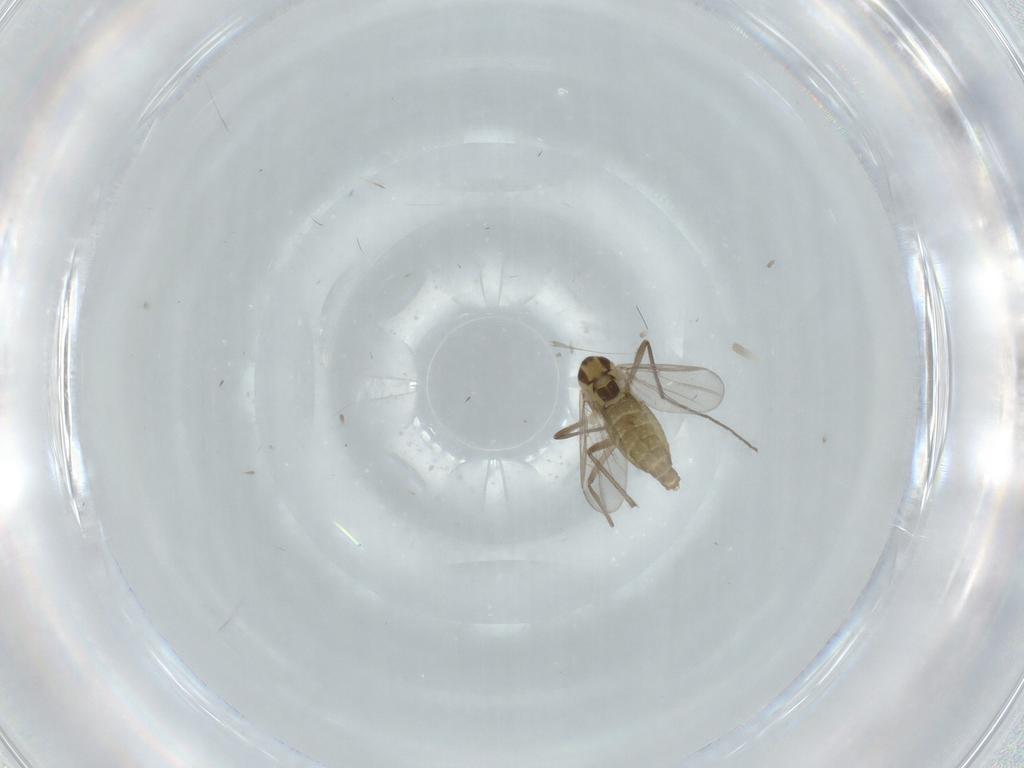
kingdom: Animalia
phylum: Arthropoda
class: Insecta
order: Diptera
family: Chironomidae
